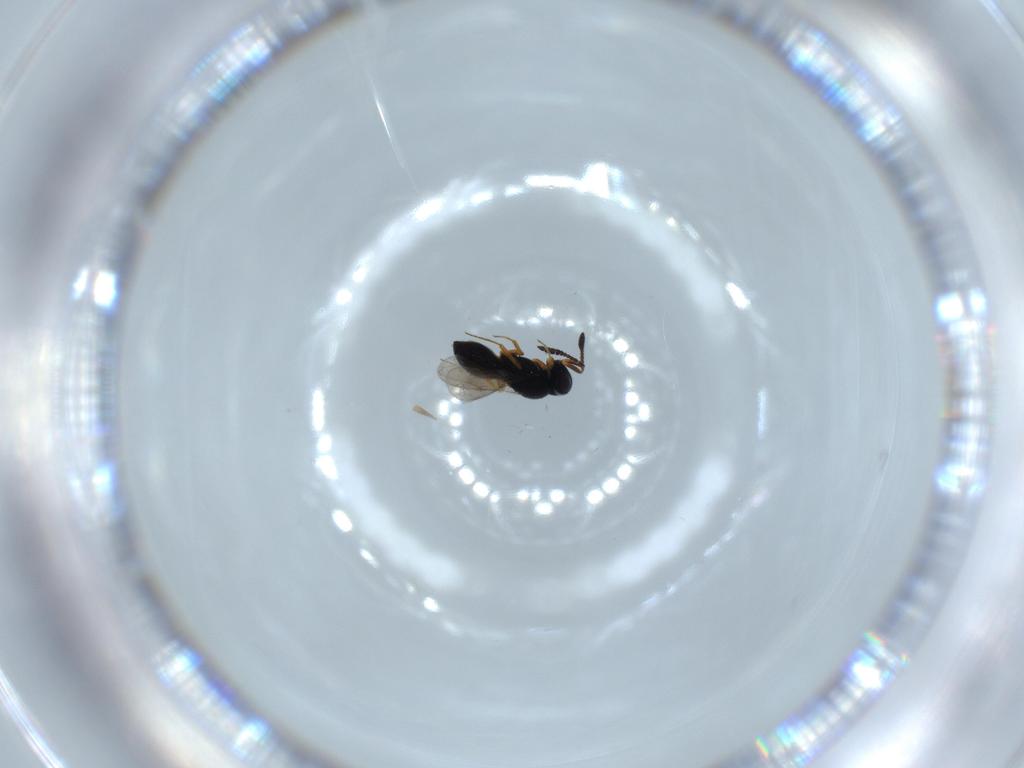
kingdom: Animalia
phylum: Arthropoda
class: Insecta
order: Hymenoptera
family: Scelionidae
